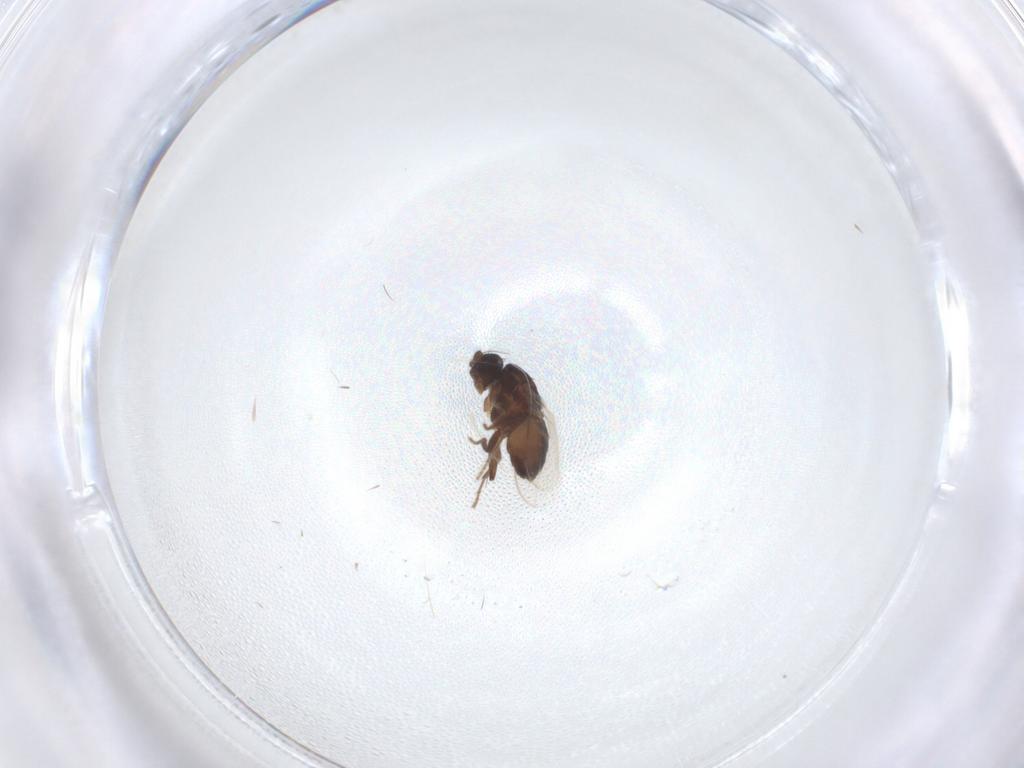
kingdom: Animalia
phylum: Arthropoda
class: Insecta
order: Diptera
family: Sphaeroceridae
